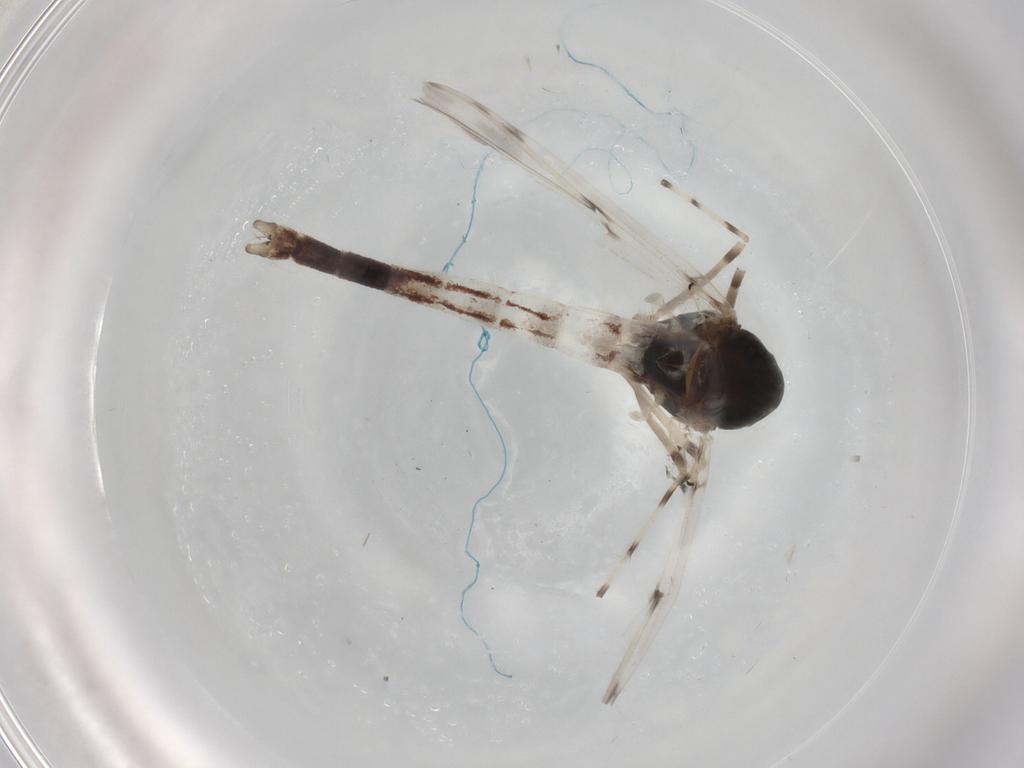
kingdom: Animalia
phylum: Arthropoda
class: Insecta
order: Diptera
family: Chironomidae
